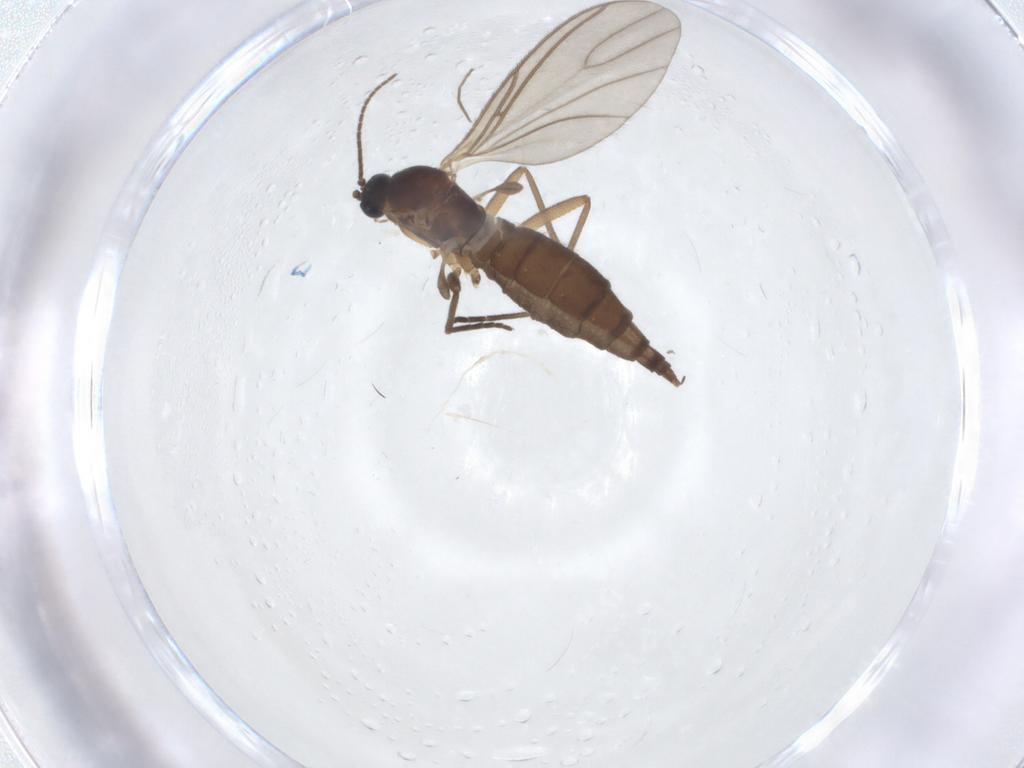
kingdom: Animalia
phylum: Arthropoda
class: Insecta
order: Diptera
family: Sciaridae
